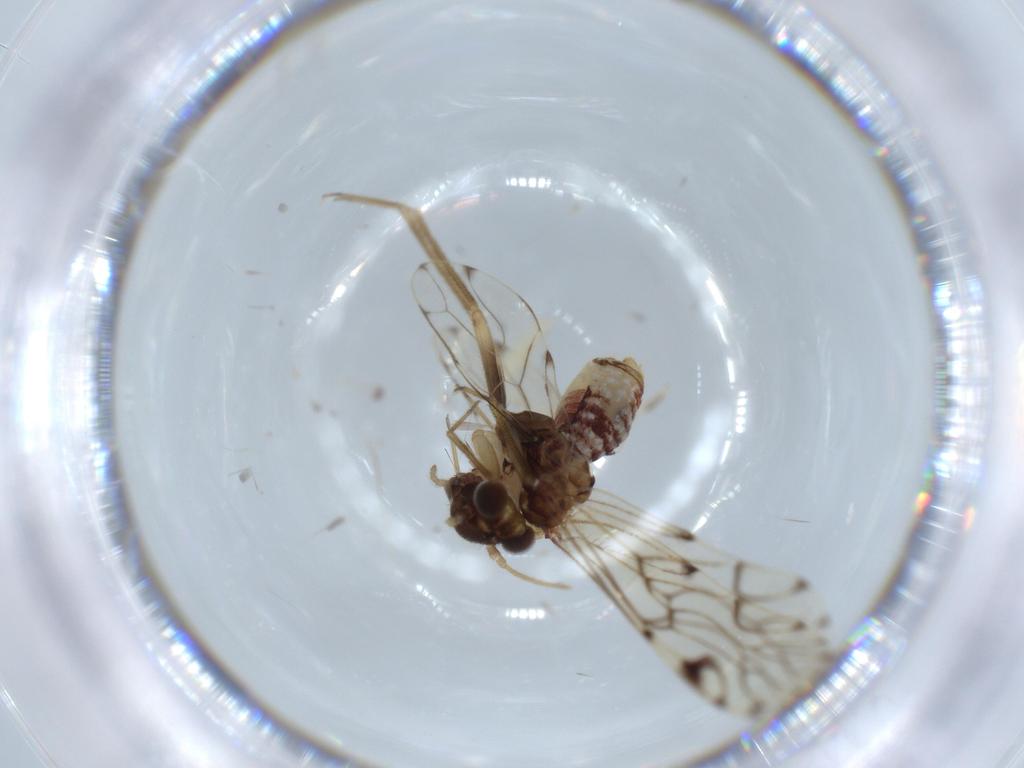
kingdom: Animalia
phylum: Arthropoda
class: Insecta
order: Psocodea
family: Epipsocidae
